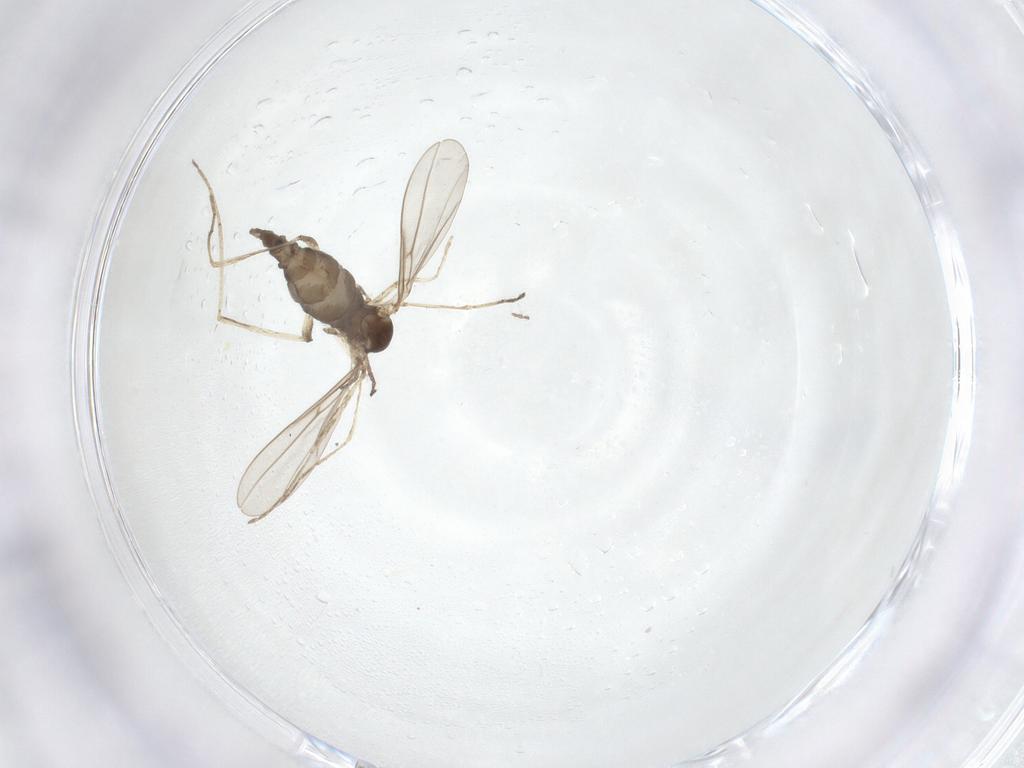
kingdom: Animalia
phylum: Arthropoda
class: Insecta
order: Diptera
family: Cecidomyiidae
